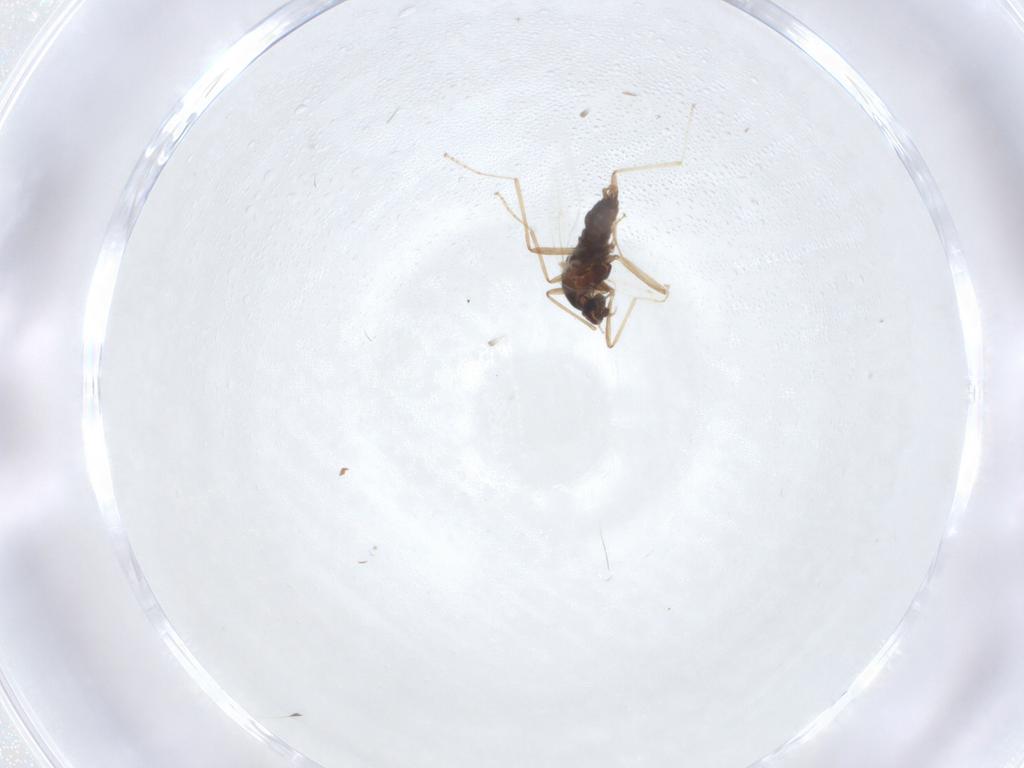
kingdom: Animalia
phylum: Arthropoda
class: Insecta
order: Diptera
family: Cecidomyiidae
